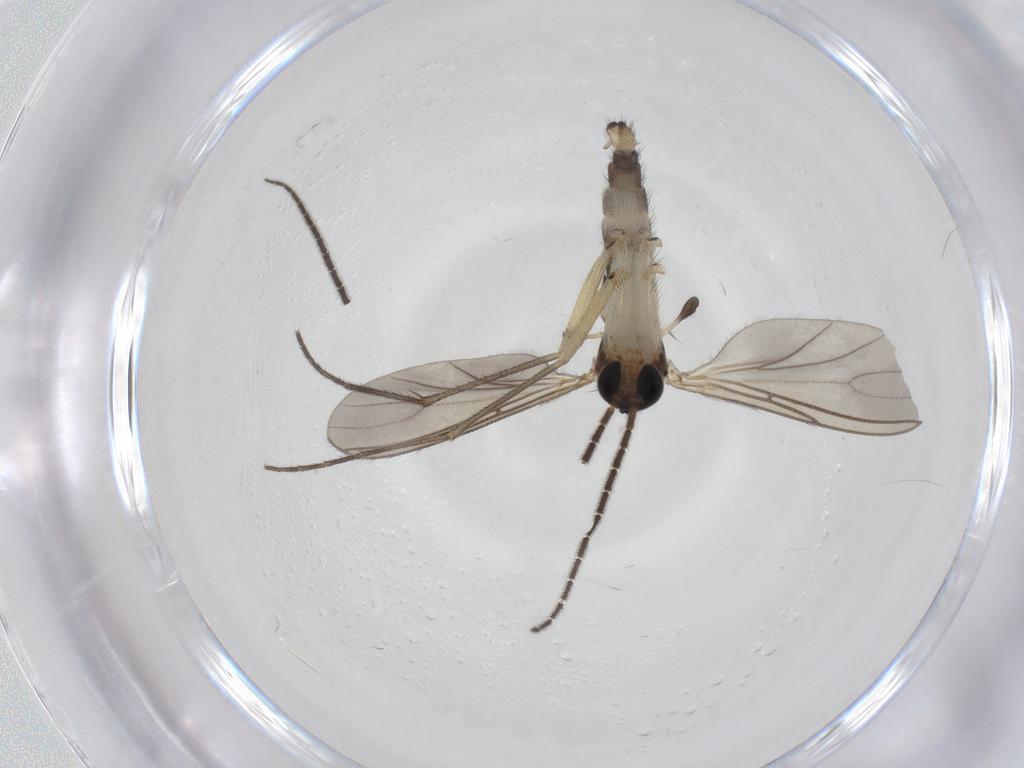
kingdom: Animalia
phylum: Arthropoda
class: Insecta
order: Diptera
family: Sciaridae
